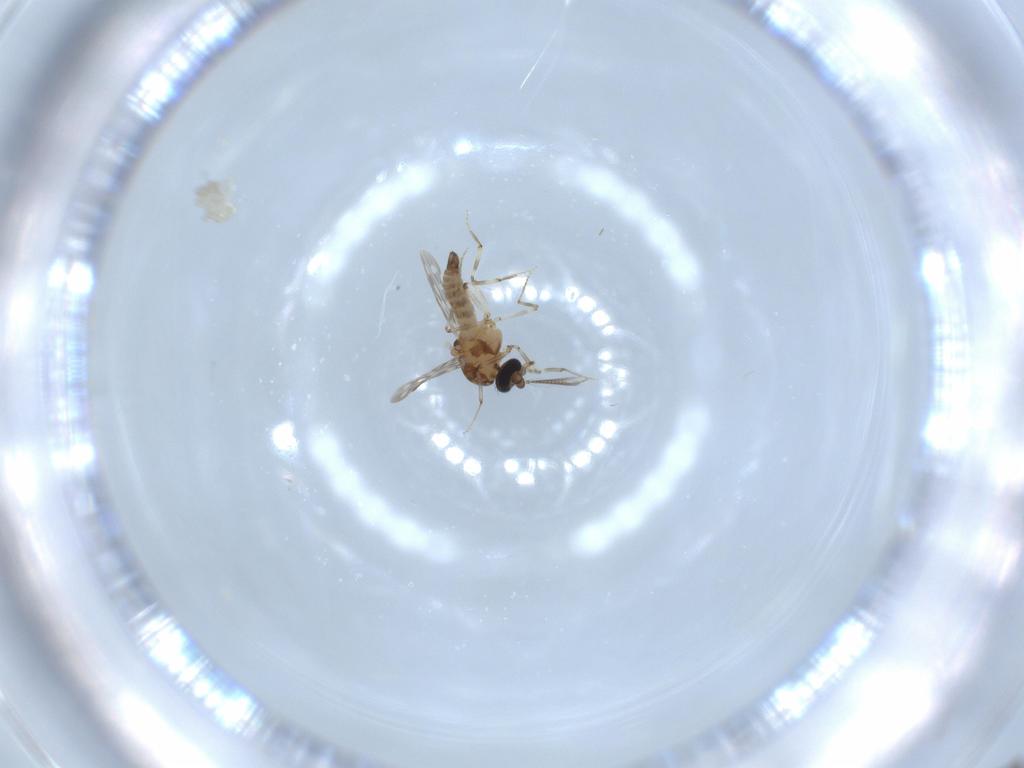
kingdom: Animalia
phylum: Arthropoda
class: Insecta
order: Diptera
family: Ceratopogonidae
